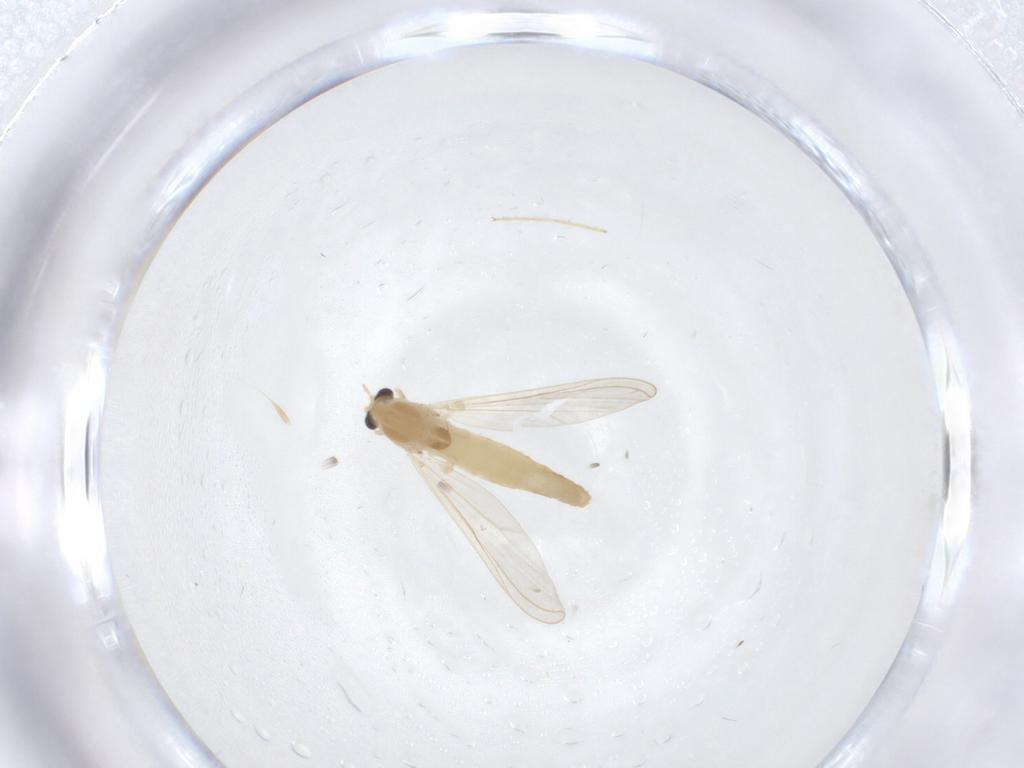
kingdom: Animalia
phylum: Arthropoda
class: Insecta
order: Diptera
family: Chironomidae
